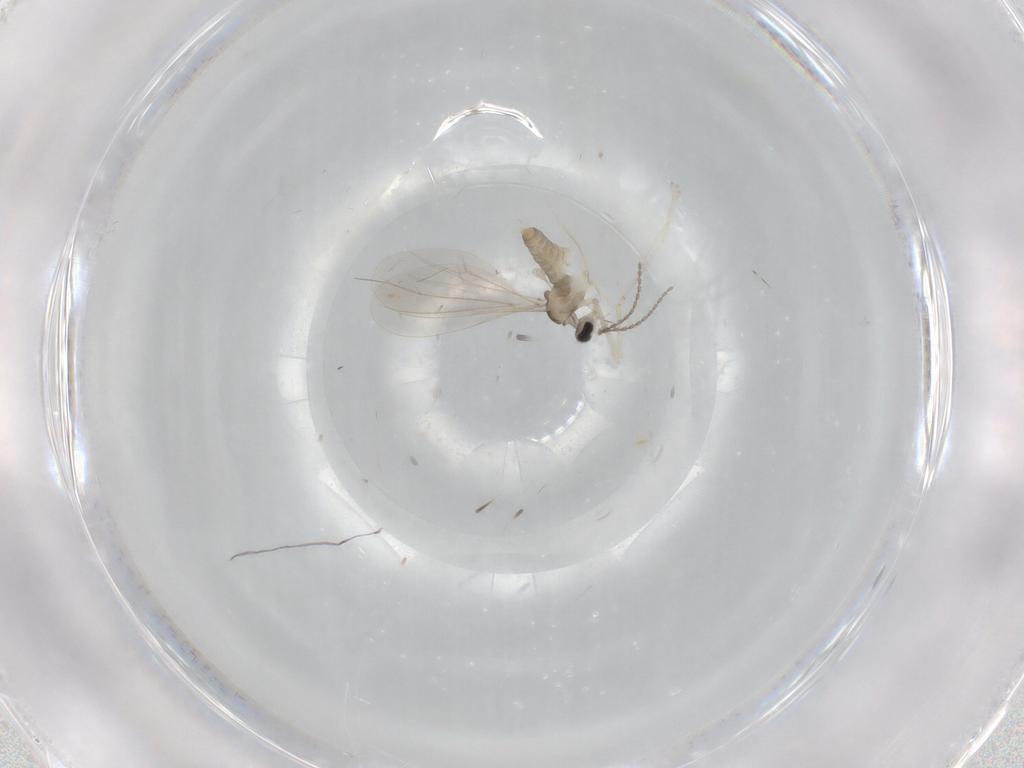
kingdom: Animalia
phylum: Arthropoda
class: Insecta
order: Diptera
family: Cecidomyiidae
